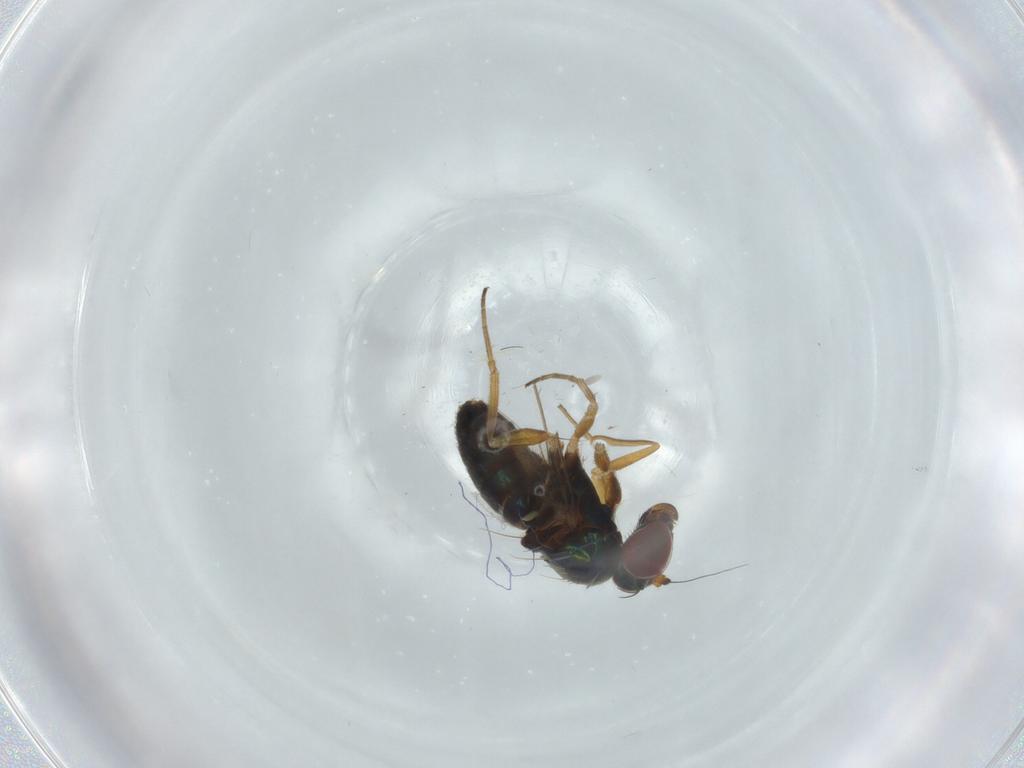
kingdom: Animalia
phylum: Arthropoda
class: Insecta
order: Diptera
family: Dolichopodidae
